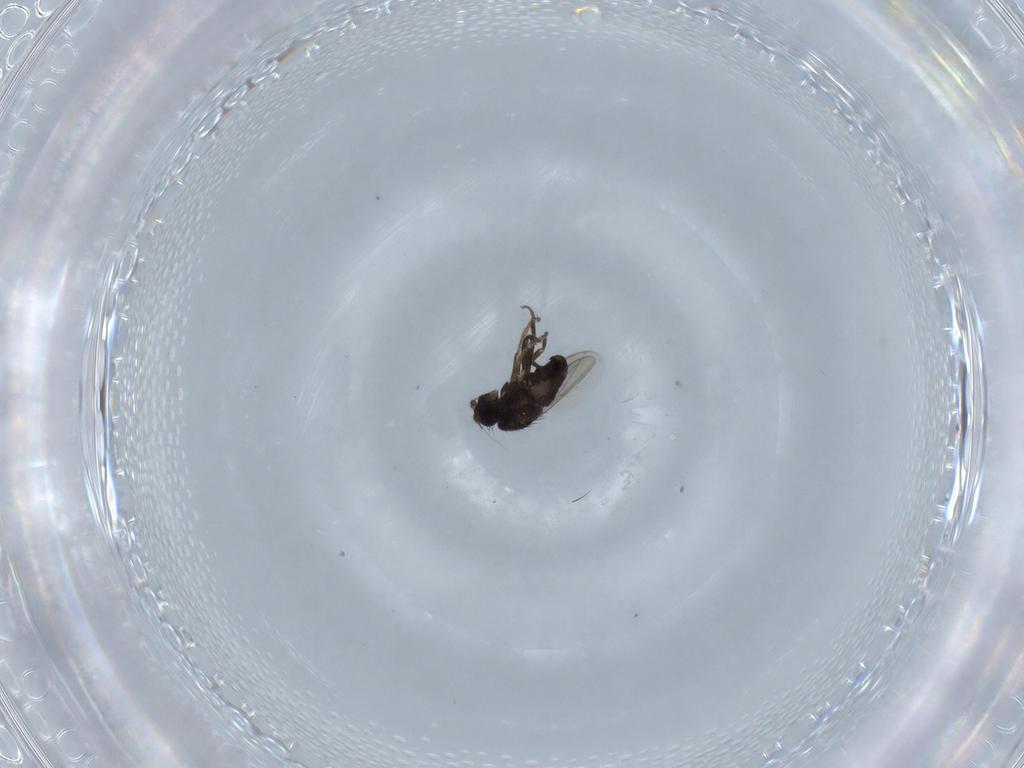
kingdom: Animalia
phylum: Arthropoda
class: Insecta
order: Diptera
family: Sphaeroceridae
